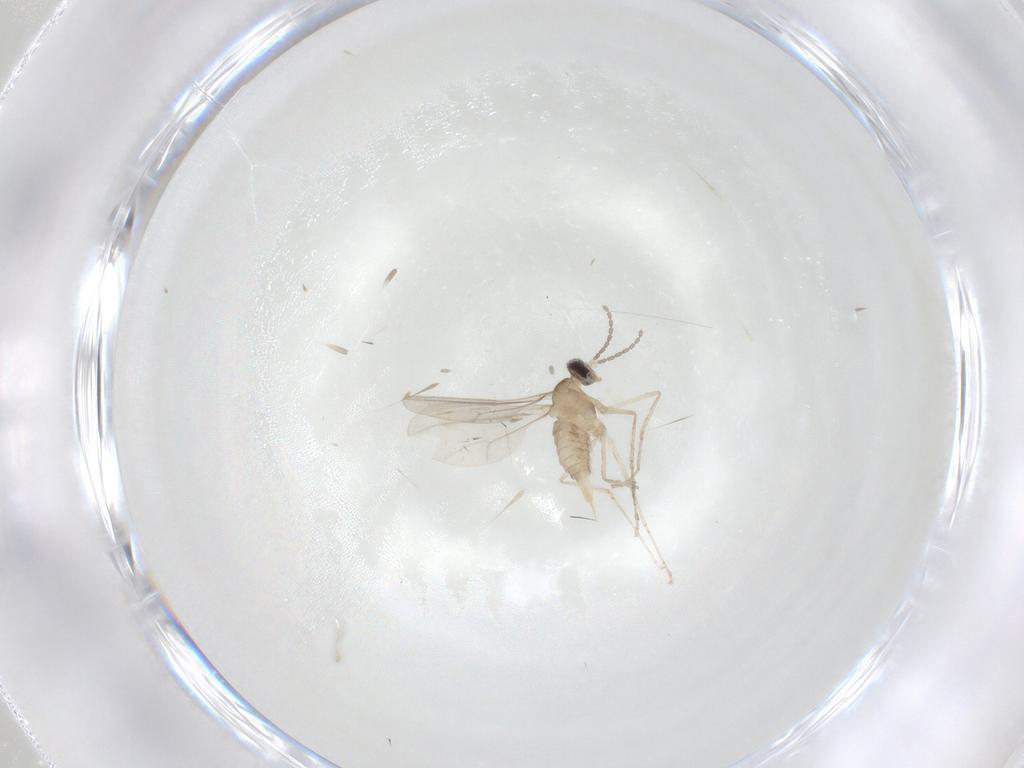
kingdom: Animalia
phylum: Arthropoda
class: Insecta
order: Diptera
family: Cecidomyiidae
